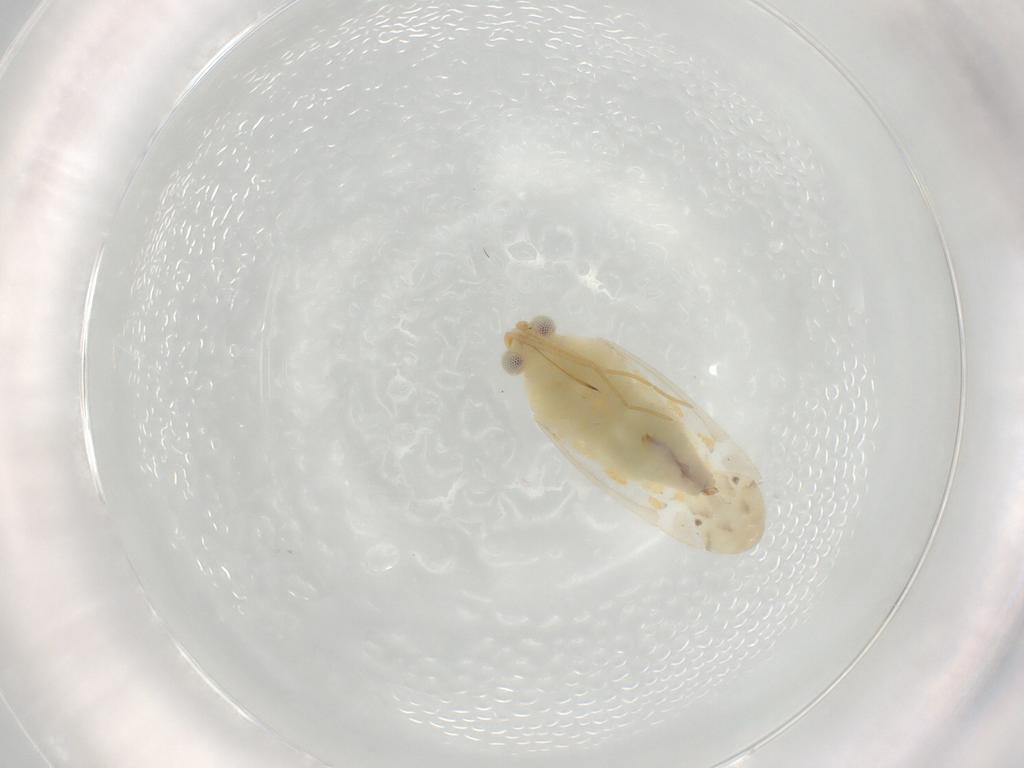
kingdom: Animalia
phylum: Arthropoda
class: Insecta
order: Hemiptera
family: Miridae
